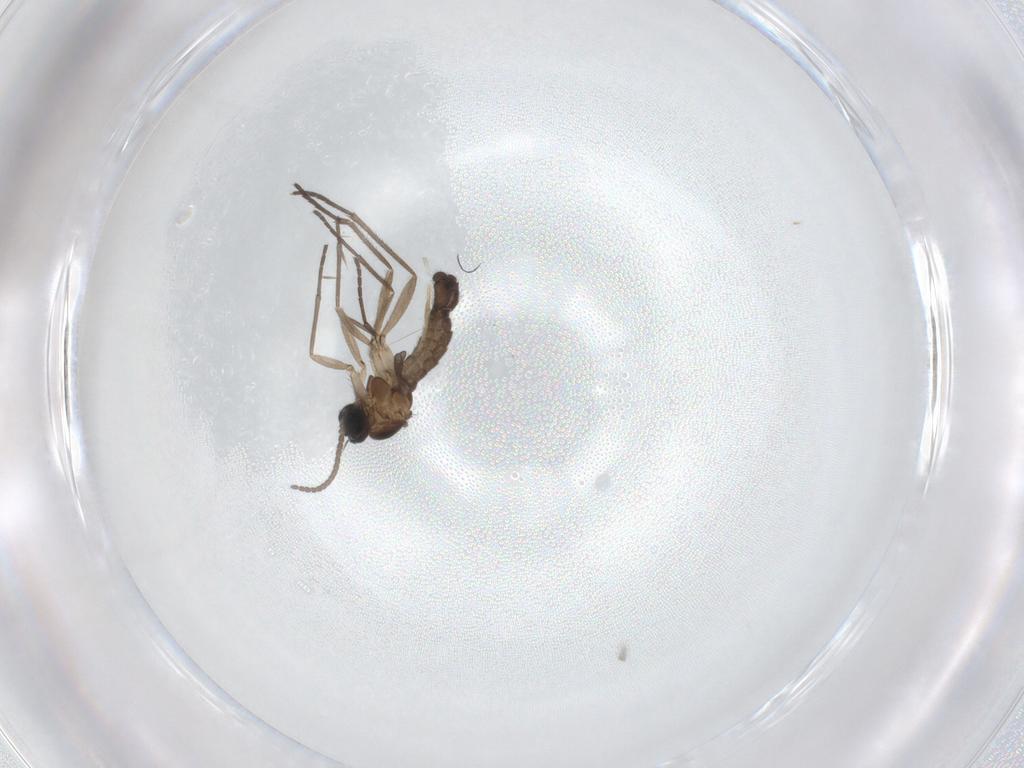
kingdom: Animalia
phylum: Arthropoda
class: Insecta
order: Diptera
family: Sciaridae
